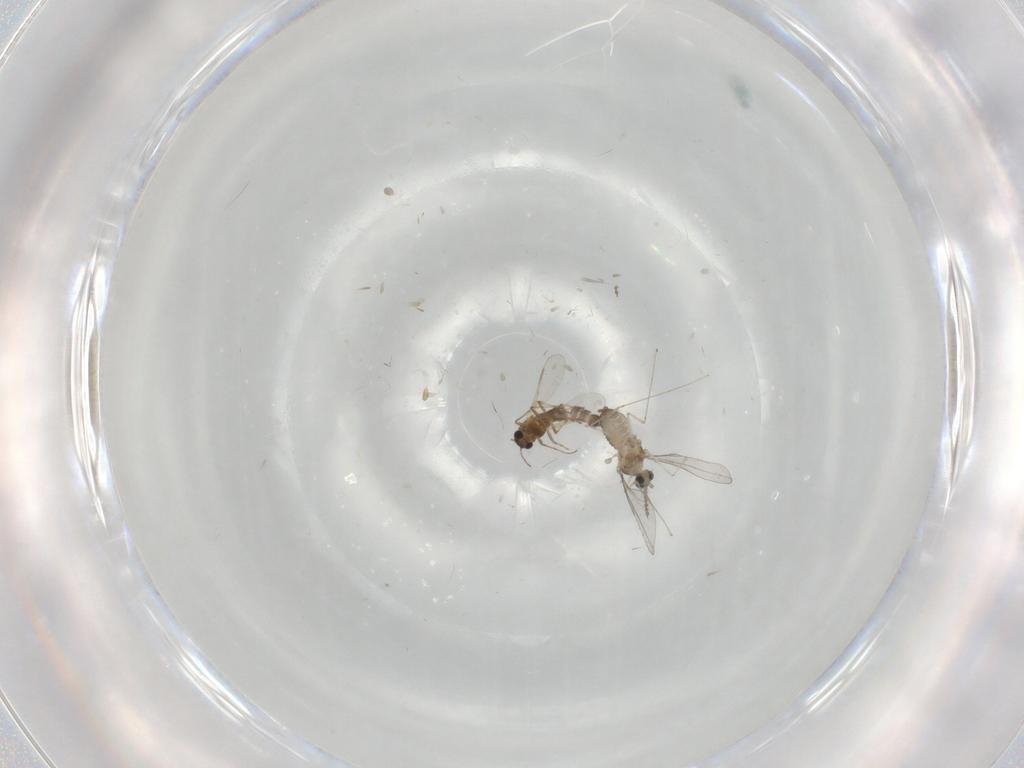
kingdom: Animalia
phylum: Arthropoda
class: Insecta
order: Diptera
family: Chironomidae
